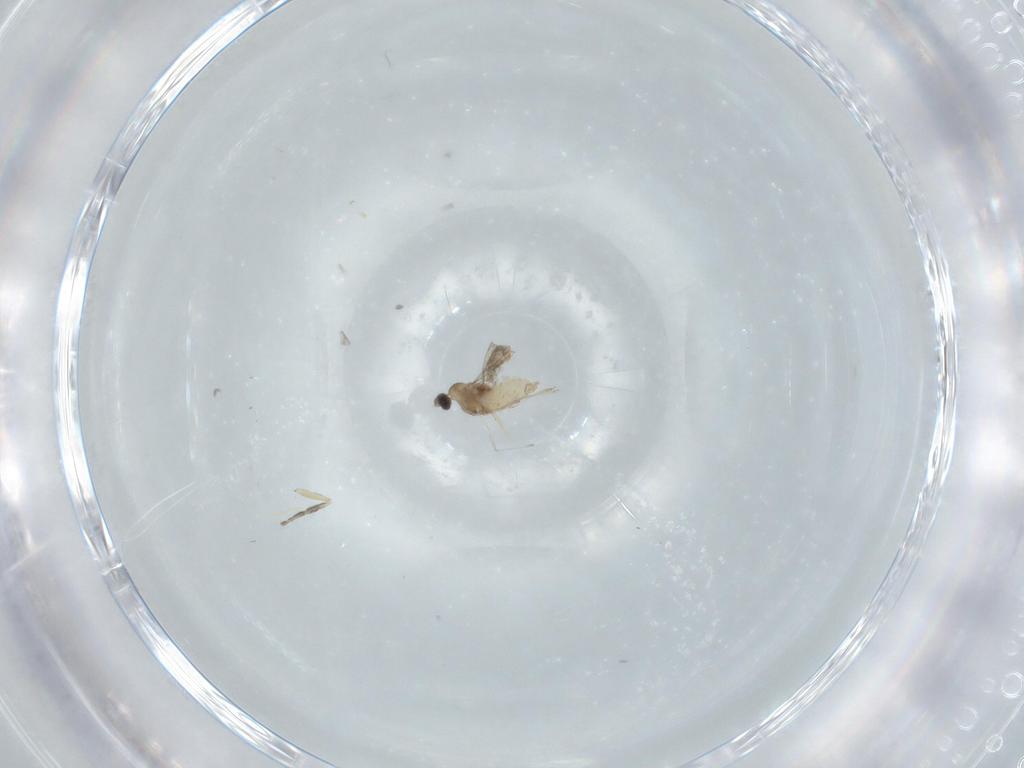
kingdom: Animalia
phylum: Arthropoda
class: Insecta
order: Diptera
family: Cecidomyiidae
